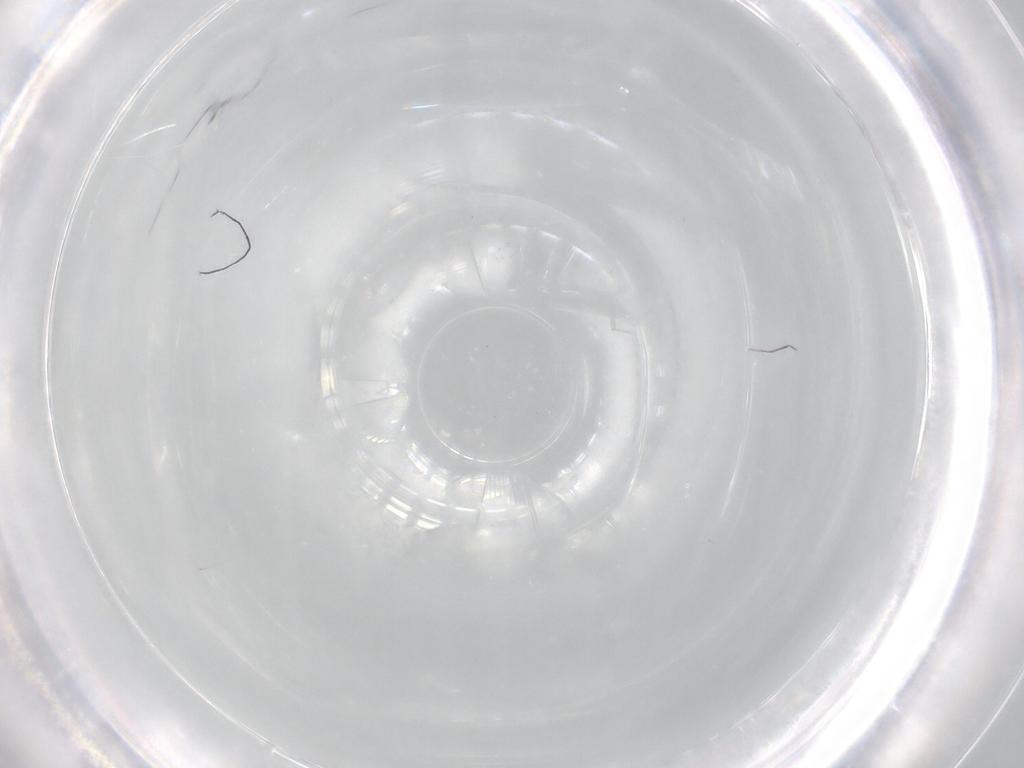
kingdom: Animalia
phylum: Arthropoda
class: Arachnida
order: Trombidiformes
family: Eupodidae
